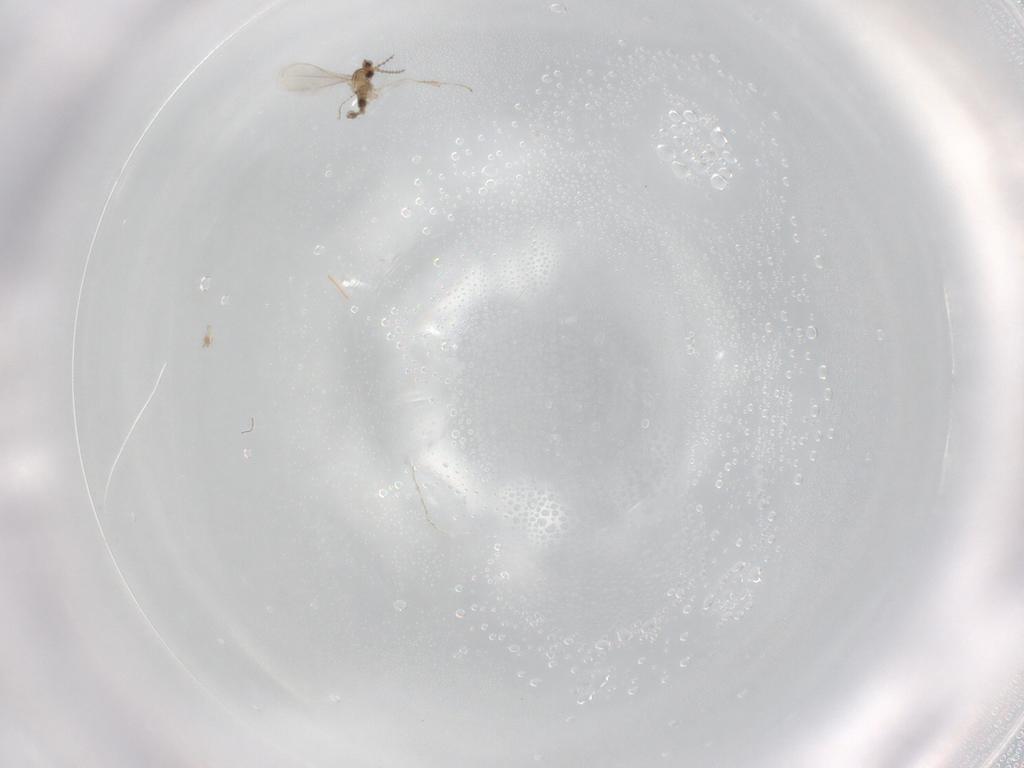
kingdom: Animalia
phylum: Arthropoda
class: Insecta
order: Diptera
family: Cecidomyiidae
